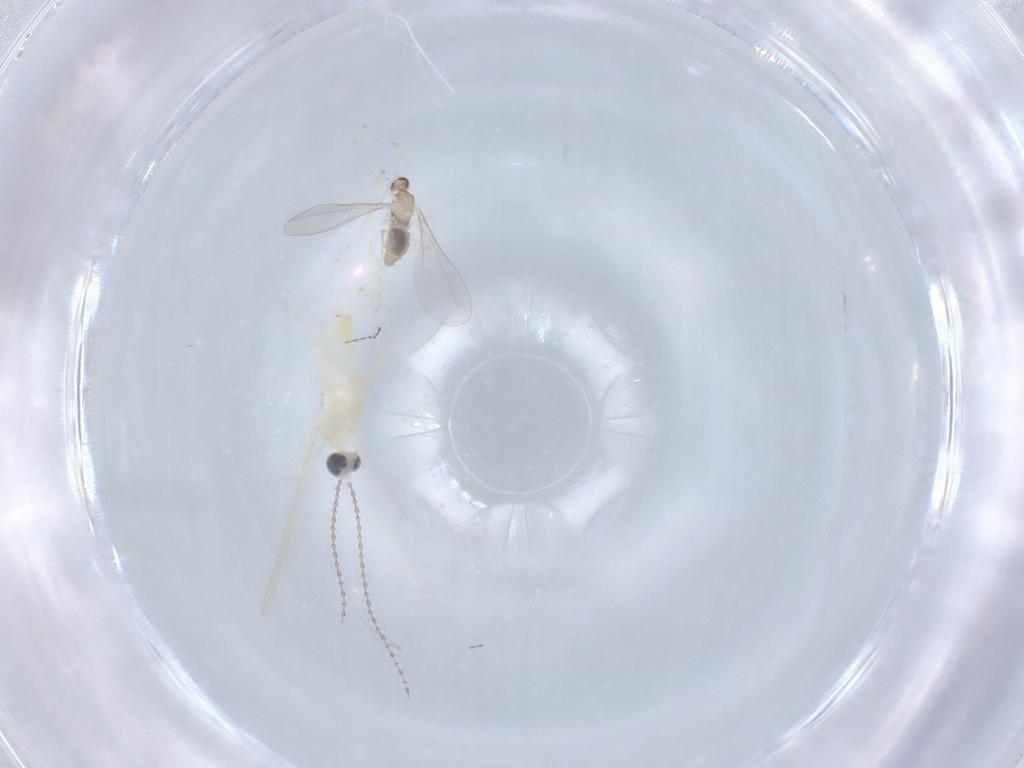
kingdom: Animalia
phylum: Arthropoda
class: Insecta
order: Diptera
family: Cecidomyiidae
